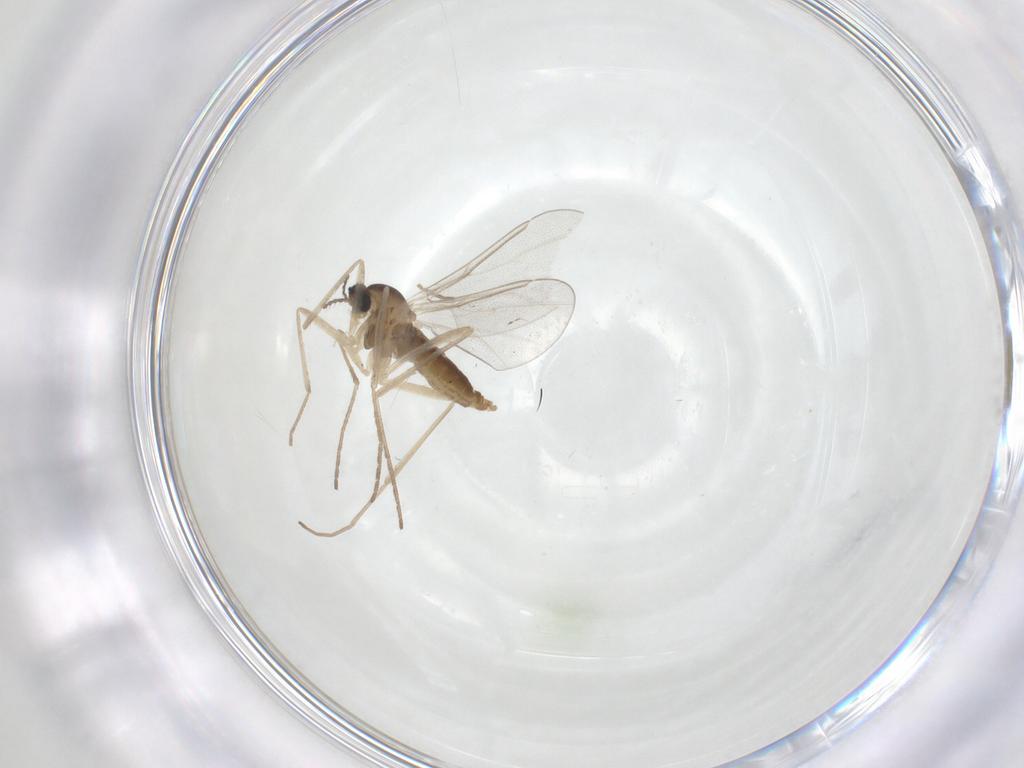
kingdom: Animalia
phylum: Arthropoda
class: Insecta
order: Diptera
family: Cecidomyiidae
